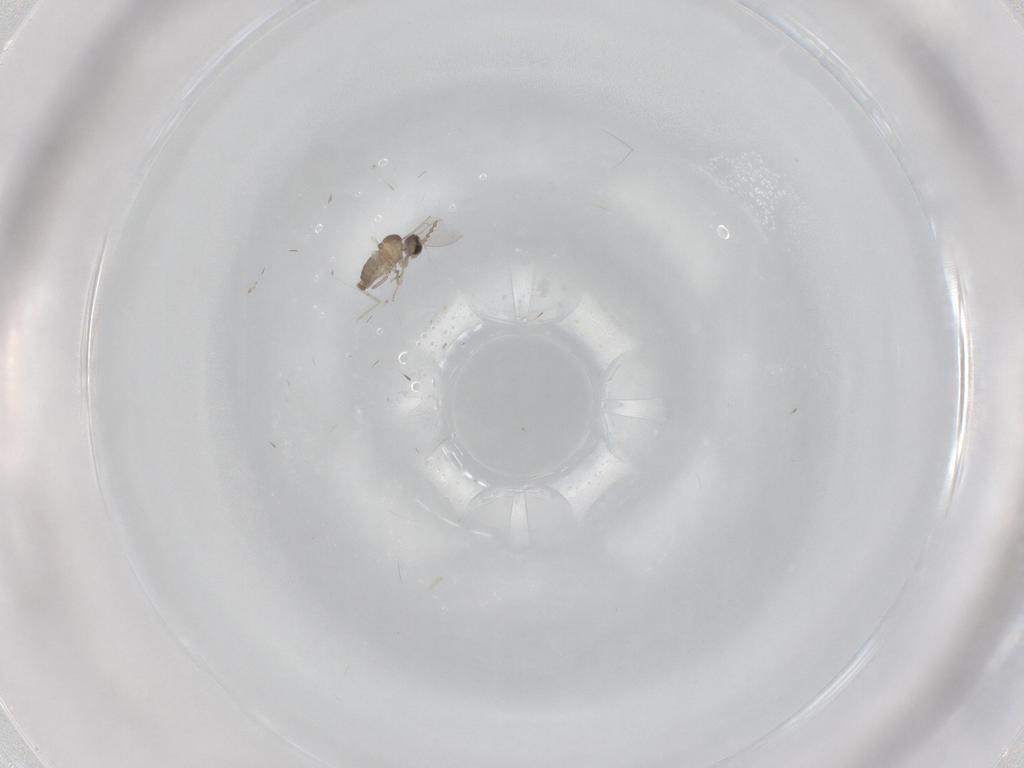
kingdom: Animalia
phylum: Arthropoda
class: Insecta
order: Diptera
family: Cecidomyiidae
